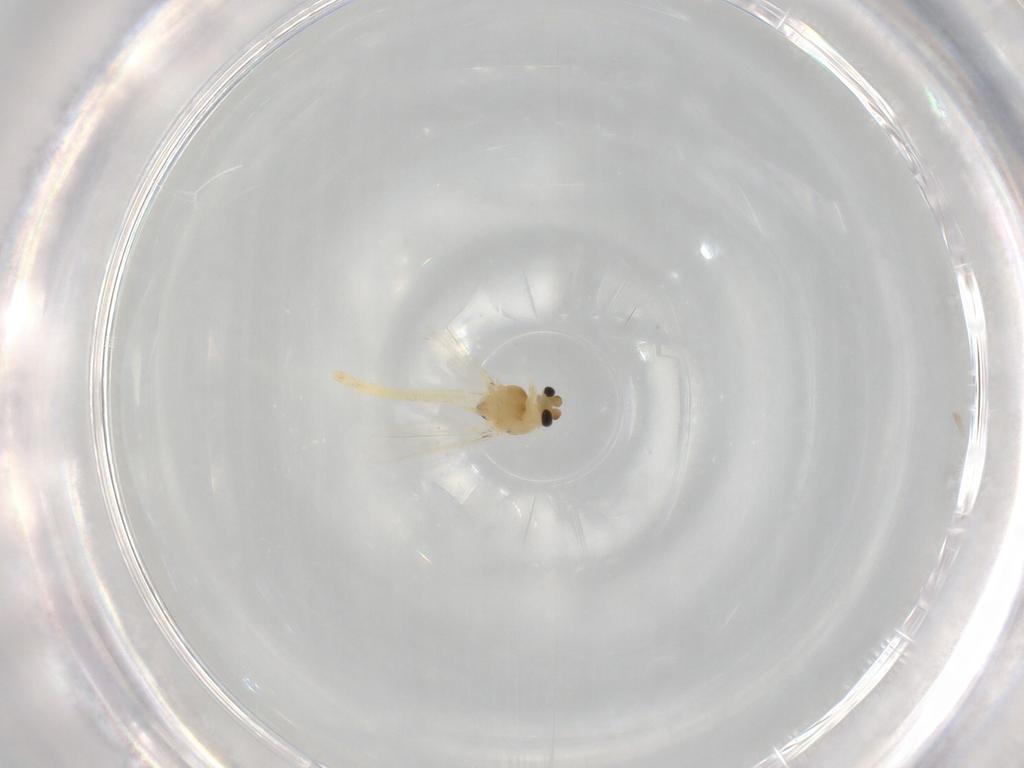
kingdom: Animalia
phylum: Arthropoda
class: Insecta
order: Diptera
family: Chironomidae
